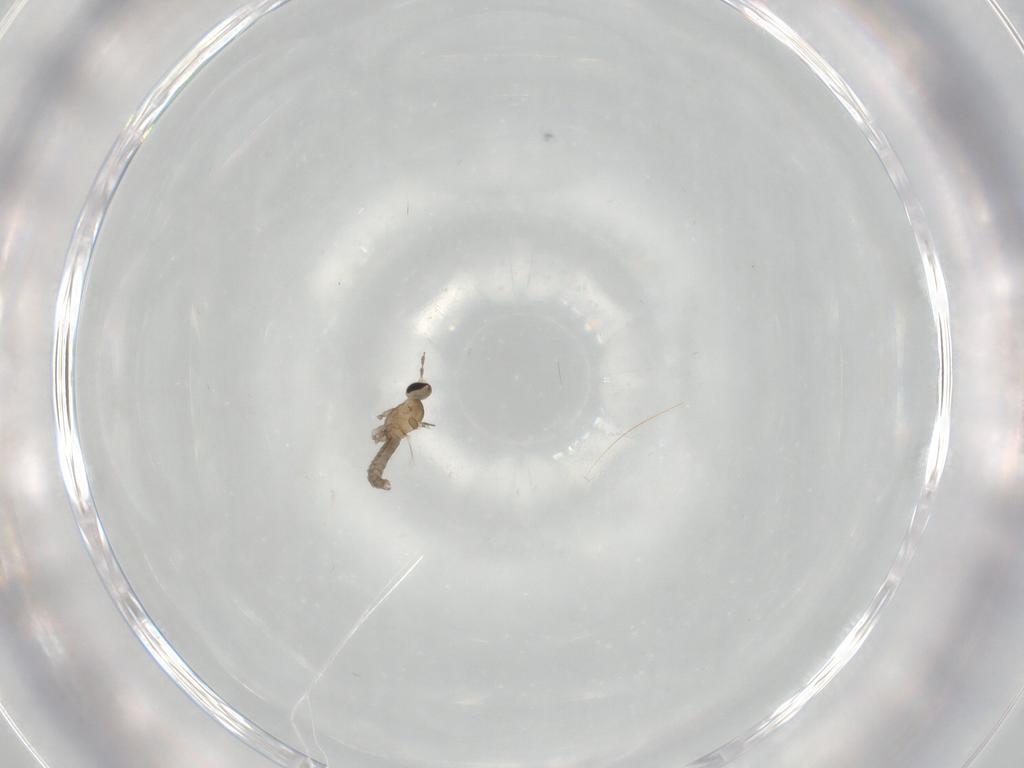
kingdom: Animalia
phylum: Arthropoda
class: Insecta
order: Diptera
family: Cecidomyiidae
